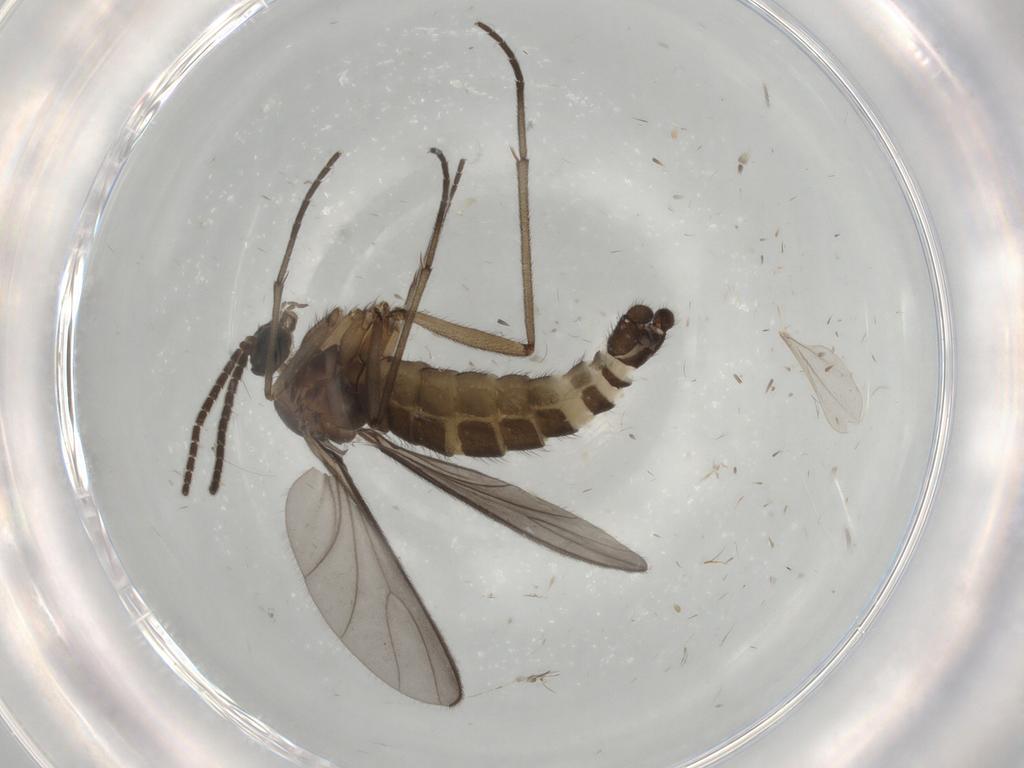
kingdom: Animalia
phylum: Arthropoda
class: Insecta
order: Diptera
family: Sciaridae
